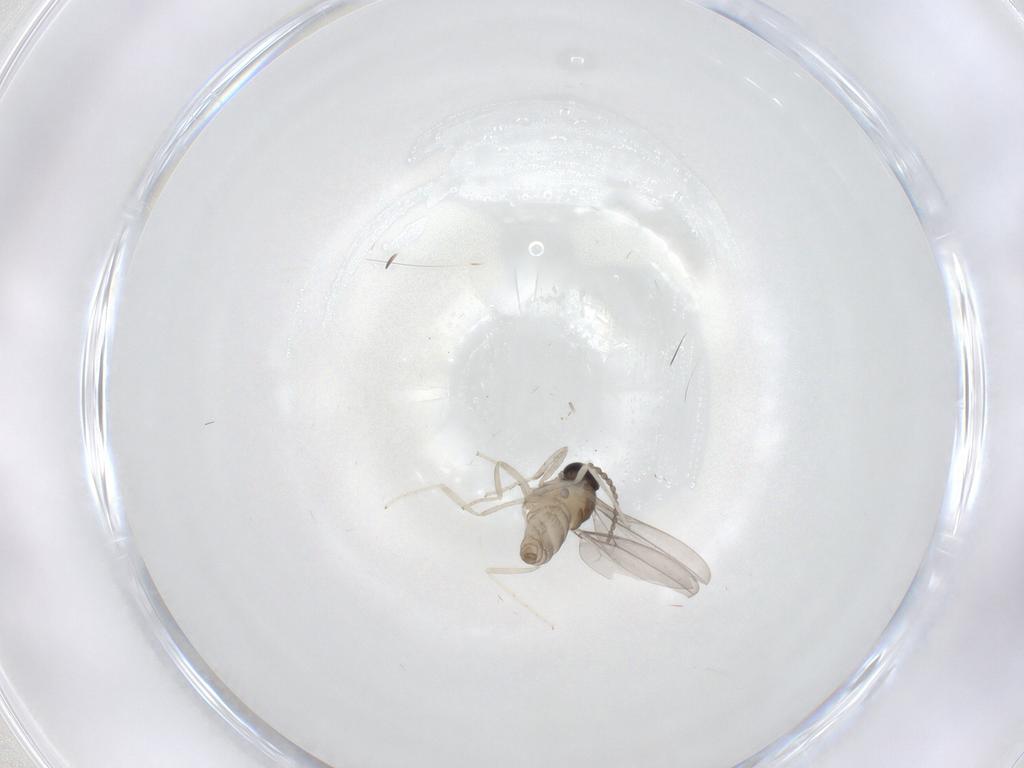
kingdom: Animalia
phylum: Arthropoda
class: Insecta
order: Diptera
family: Cecidomyiidae
